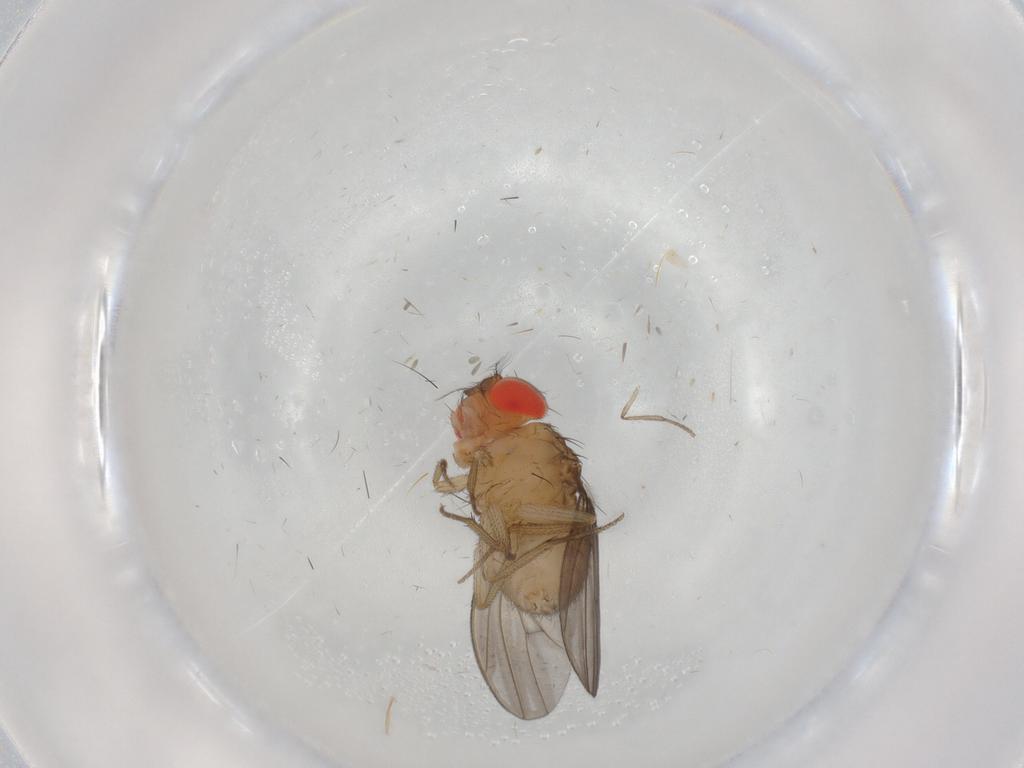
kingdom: Animalia
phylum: Arthropoda
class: Insecta
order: Diptera
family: Drosophilidae
